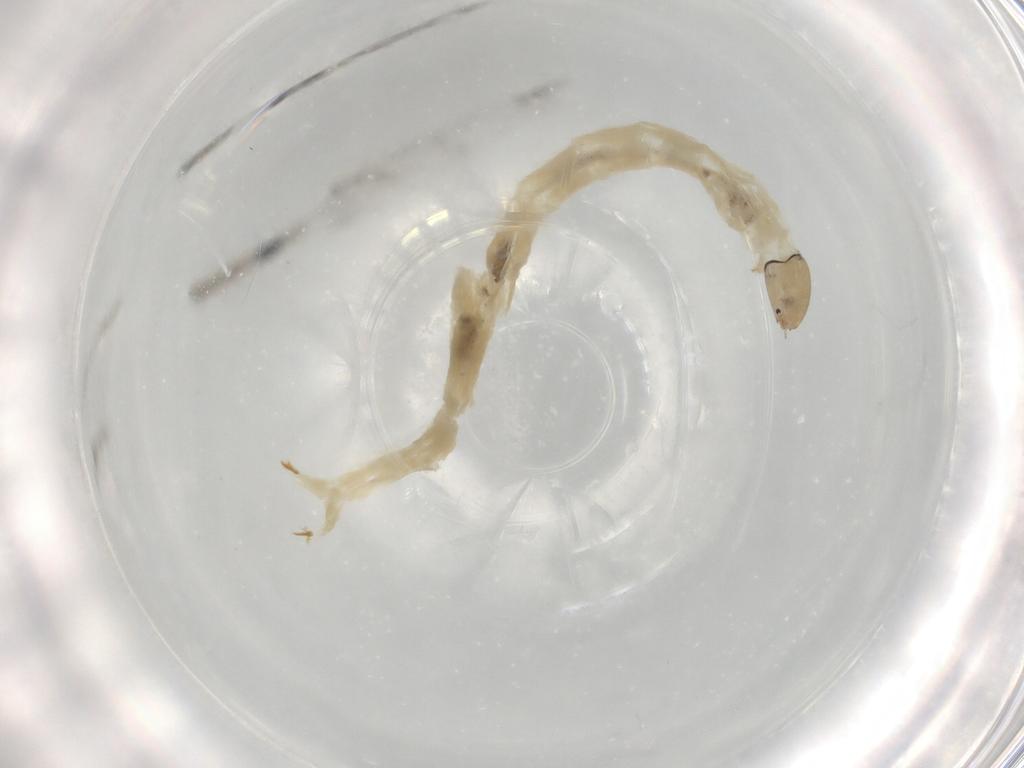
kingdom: Animalia
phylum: Arthropoda
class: Insecta
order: Diptera
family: Chironomidae
